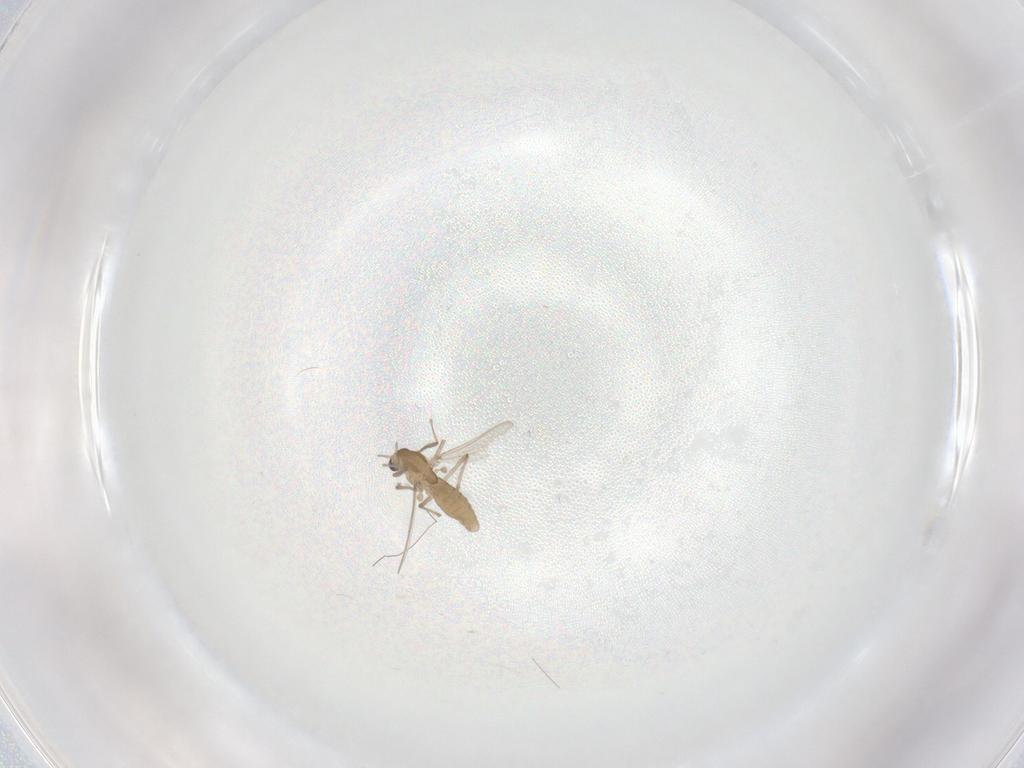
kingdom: Animalia
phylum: Arthropoda
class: Insecta
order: Diptera
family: Chironomidae
